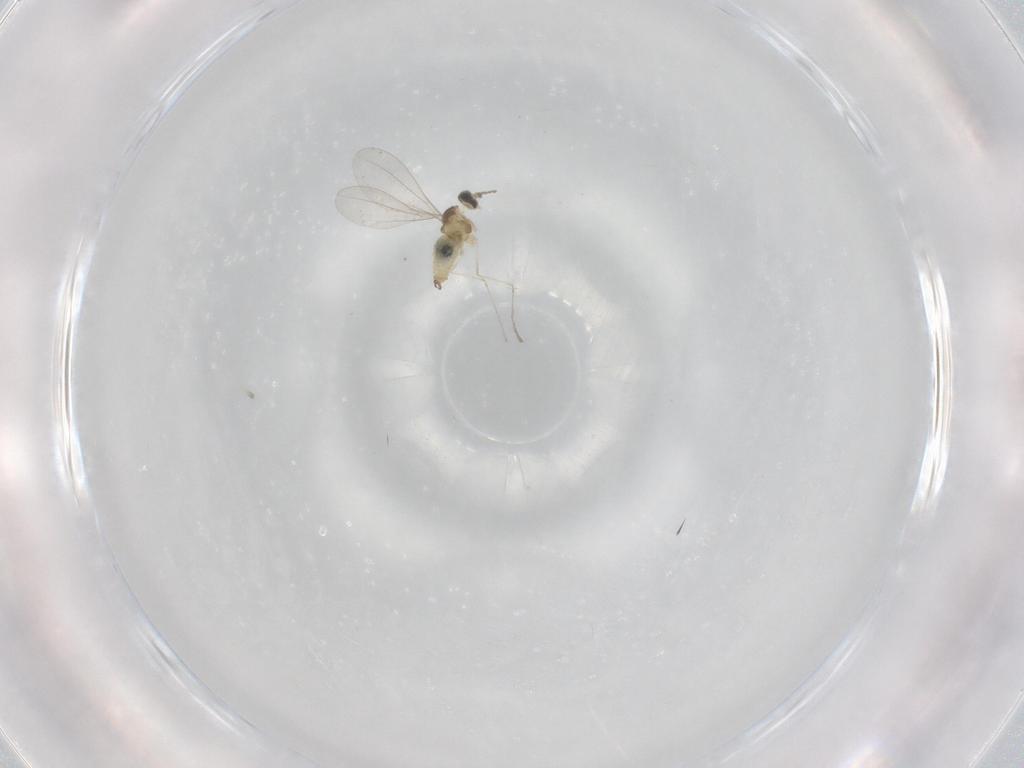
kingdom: Animalia
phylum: Arthropoda
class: Insecta
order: Diptera
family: Cecidomyiidae
